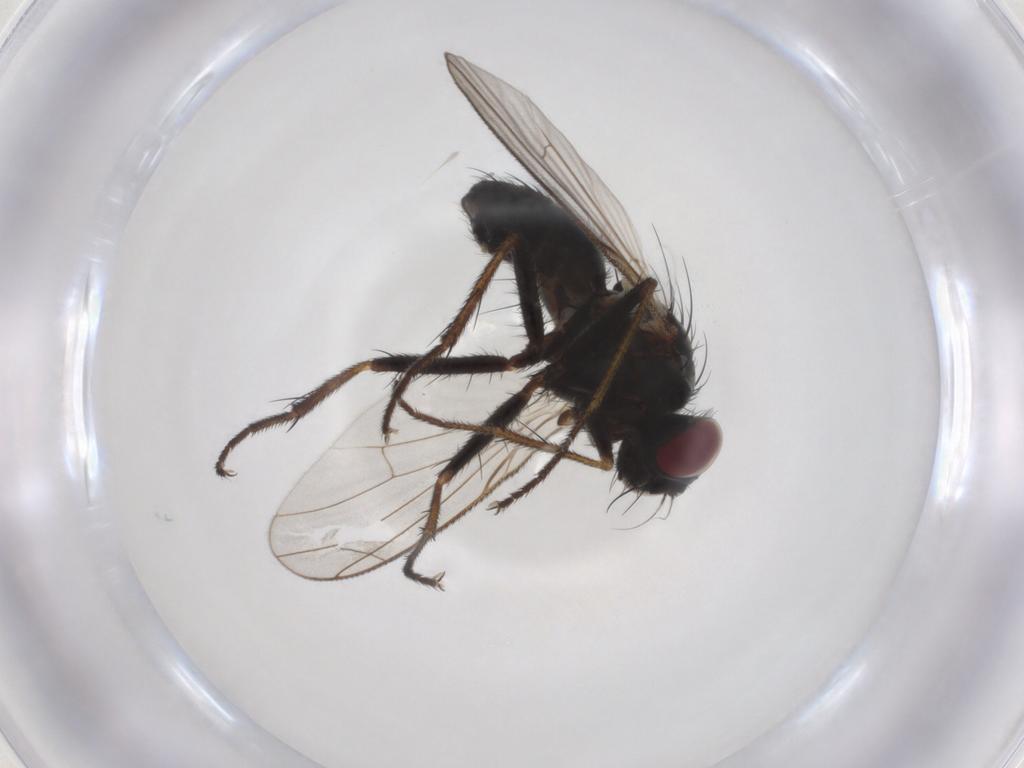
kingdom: Animalia
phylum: Arthropoda
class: Insecta
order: Diptera
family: Muscidae
